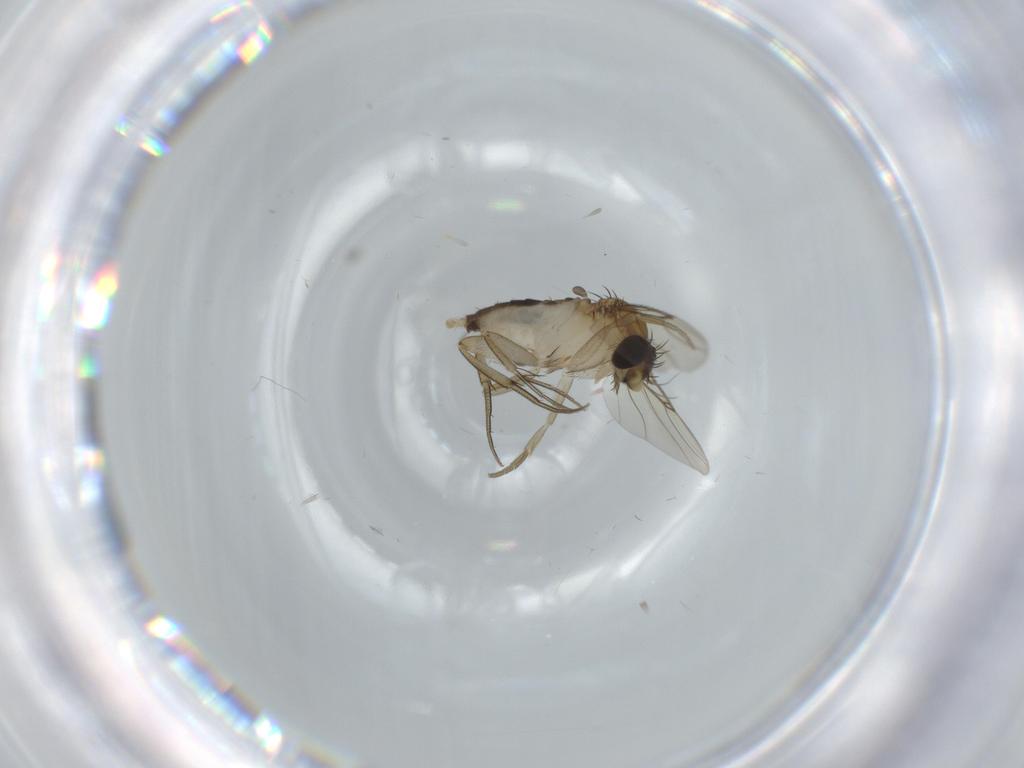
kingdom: Animalia
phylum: Arthropoda
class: Insecta
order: Diptera
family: Phoridae
